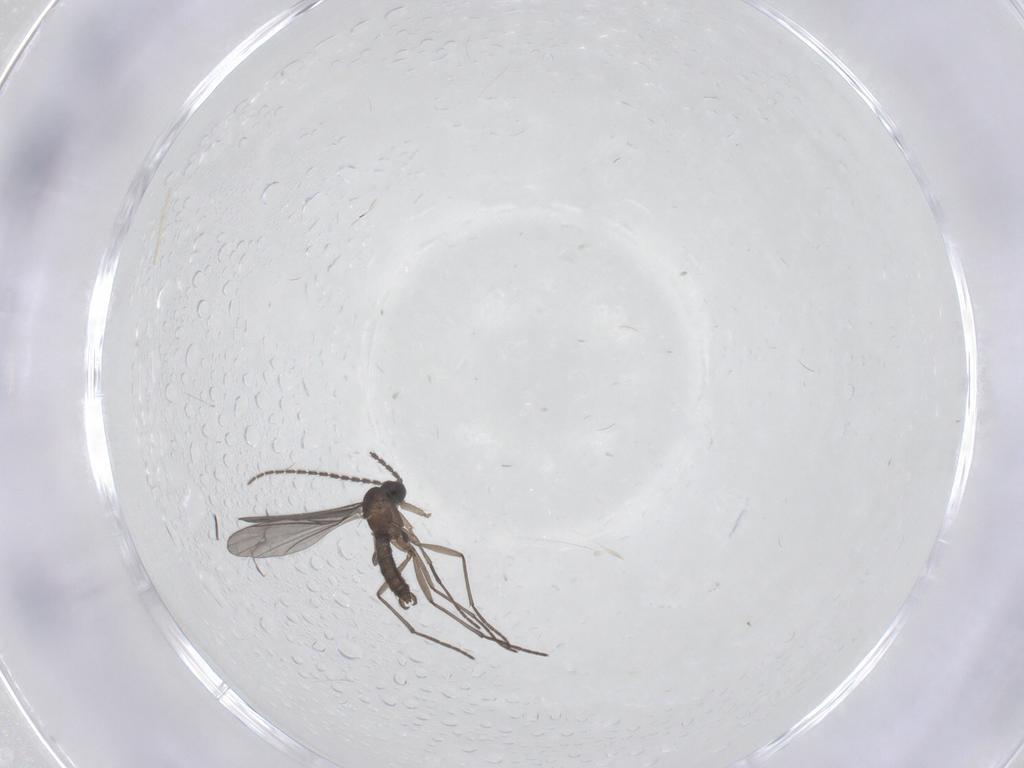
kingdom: Animalia
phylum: Arthropoda
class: Insecta
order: Diptera
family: Sciaridae
